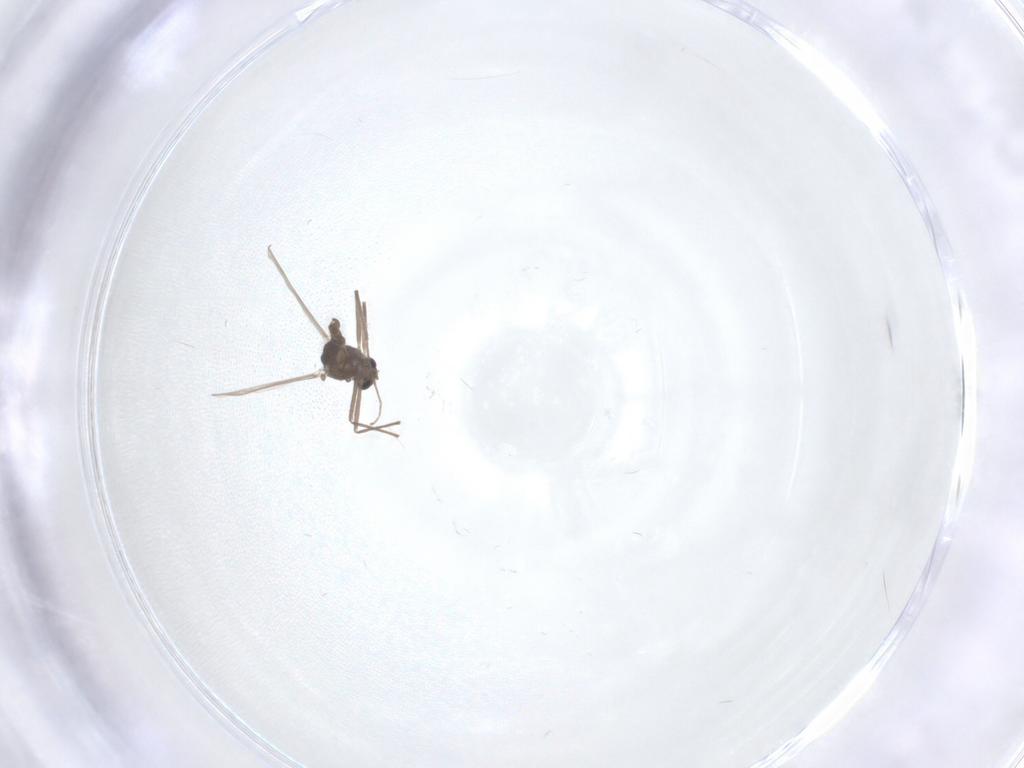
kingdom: Animalia
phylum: Arthropoda
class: Insecta
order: Diptera
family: Chironomidae
